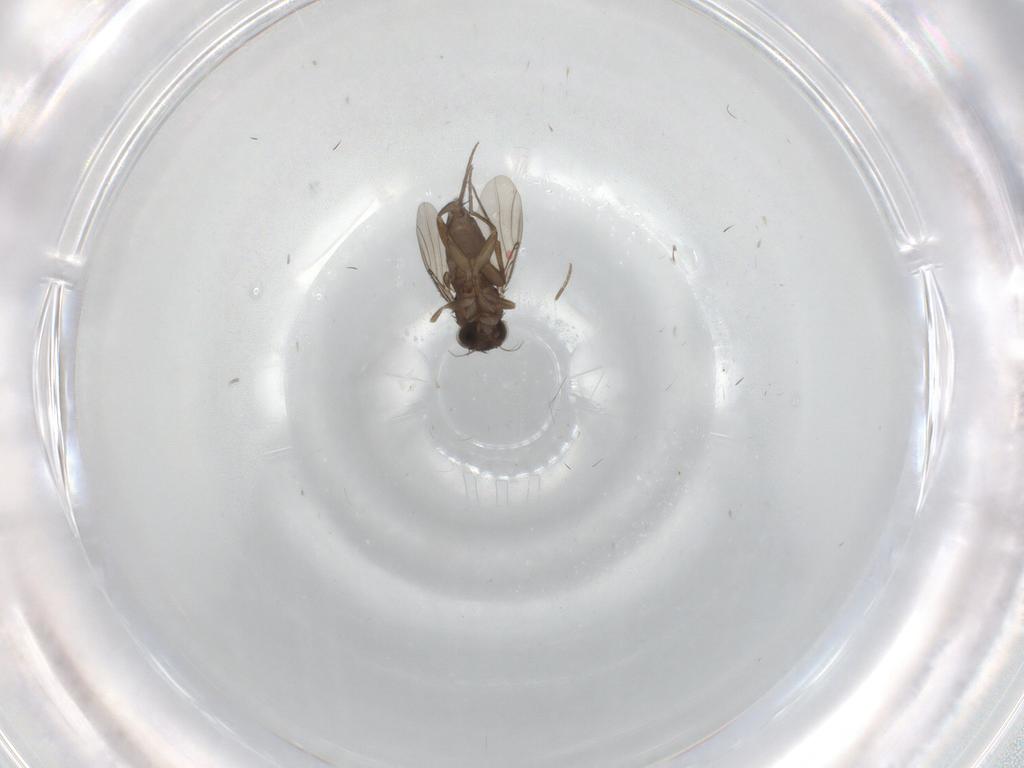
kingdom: Animalia
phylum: Arthropoda
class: Insecta
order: Diptera
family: Phoridae
